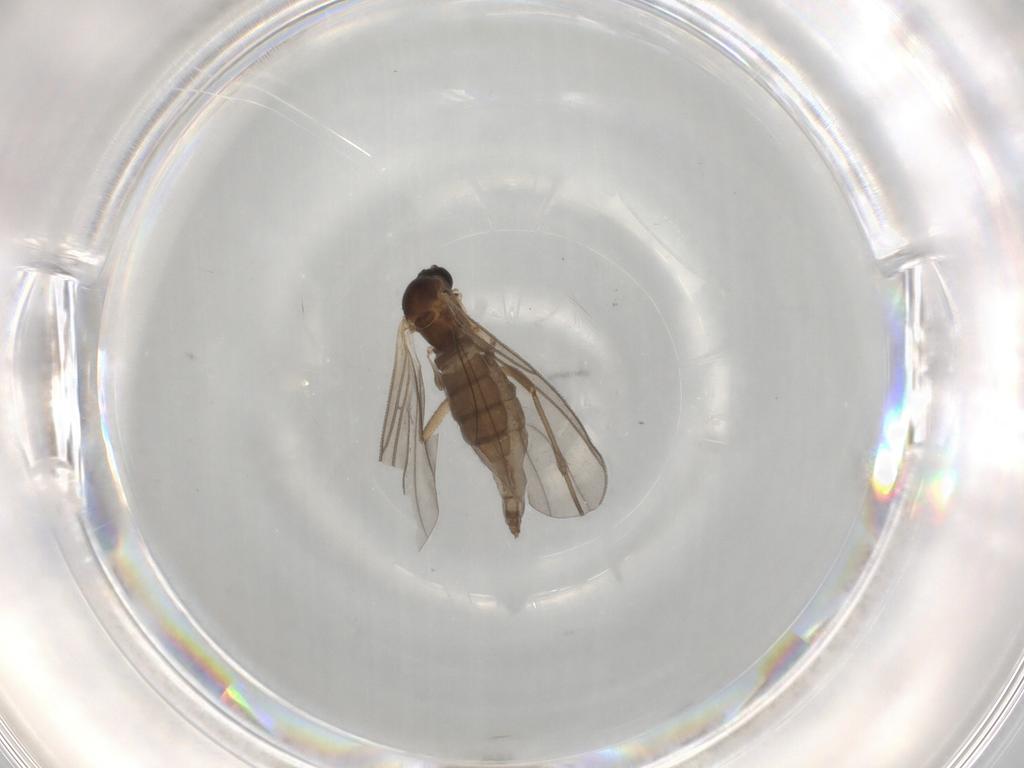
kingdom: Animalia
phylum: Arthropoda
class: Insecta
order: Diptera
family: Sciaridae
